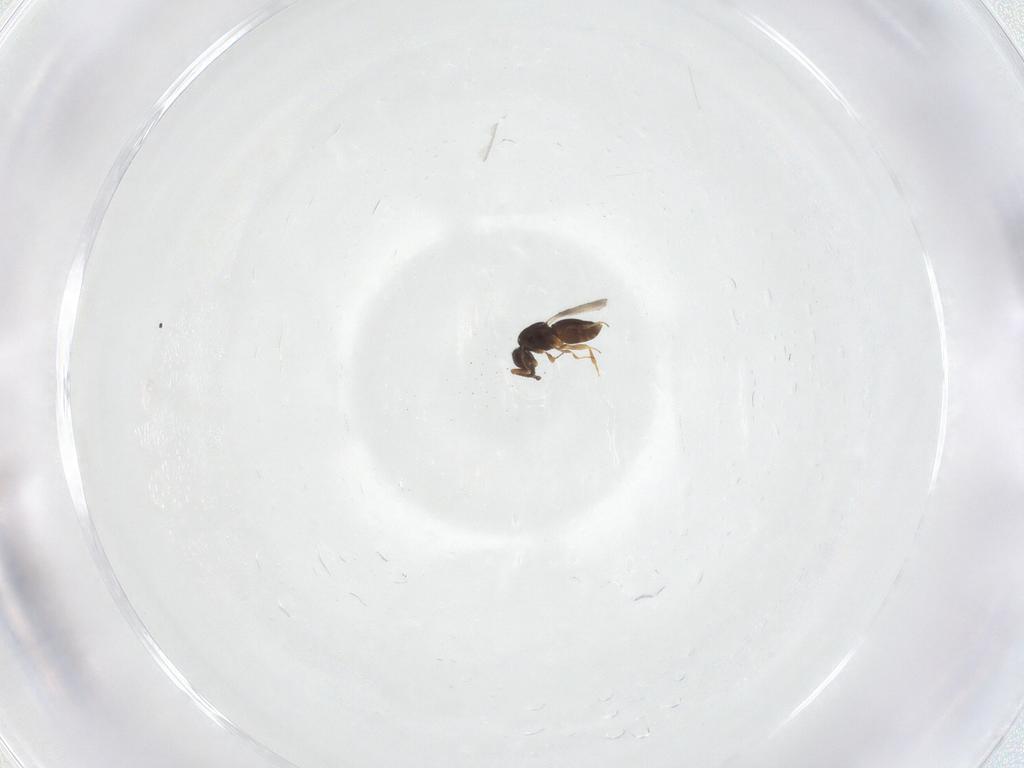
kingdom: Animalia
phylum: Arthropoda
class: Insecta
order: Hymenoptera
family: Ceraphronidae
